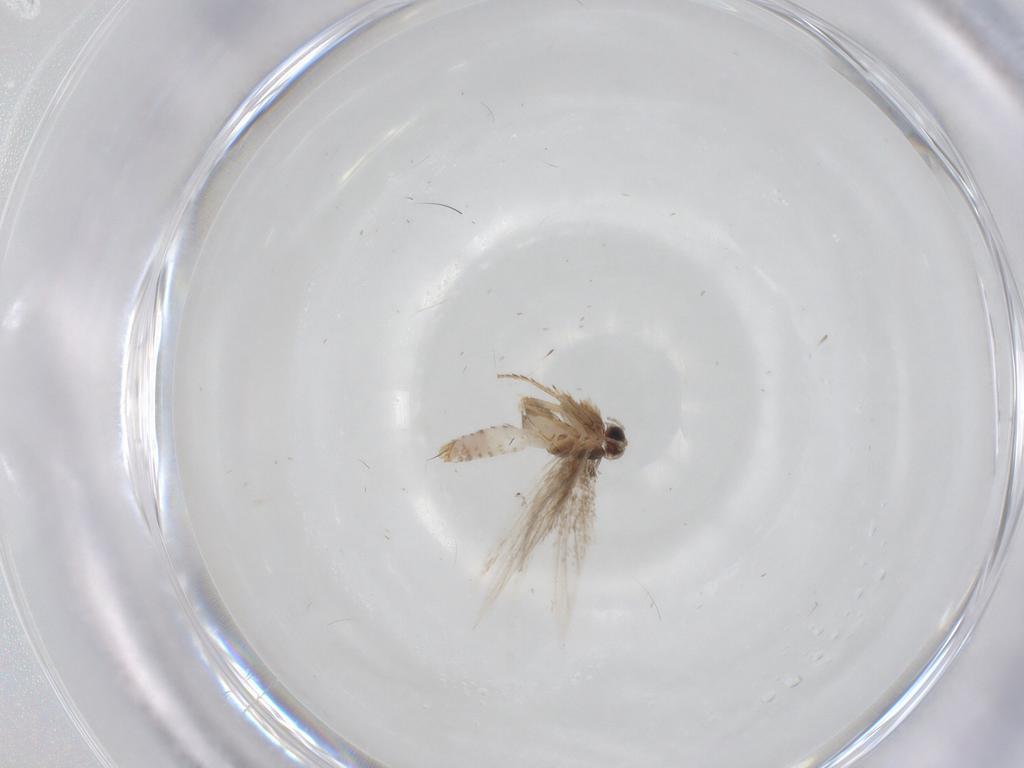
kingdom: Animalia
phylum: Arthropoda
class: Insecta
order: Lepidoptera
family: Nepticulidae
